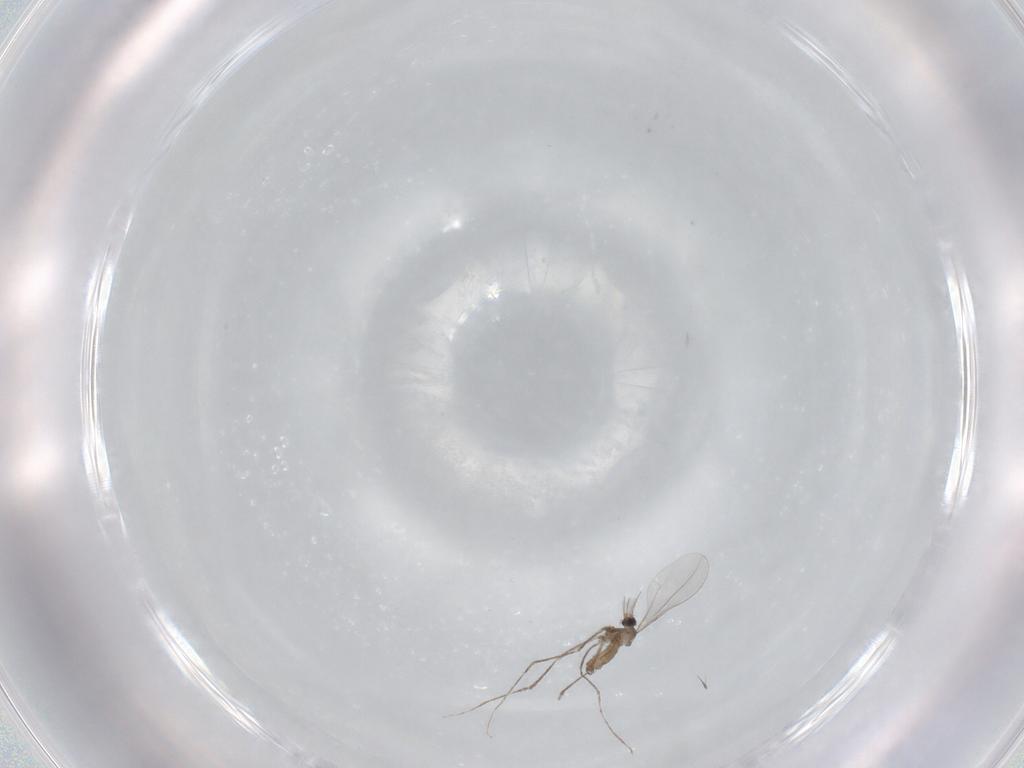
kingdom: Animalia
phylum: Arthropoda
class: Insecta
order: Diptera
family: Cecidomyiidae
